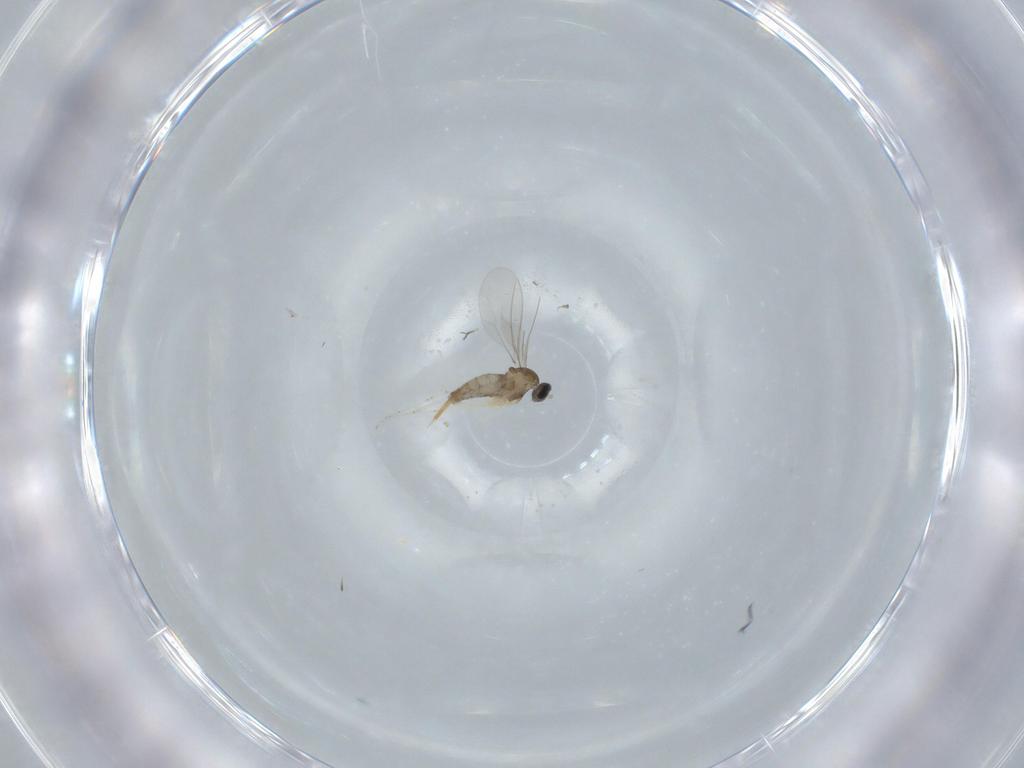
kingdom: Animalia
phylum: Arthropoda
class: Insecta
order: Diptera
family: Cecidomyiidae
